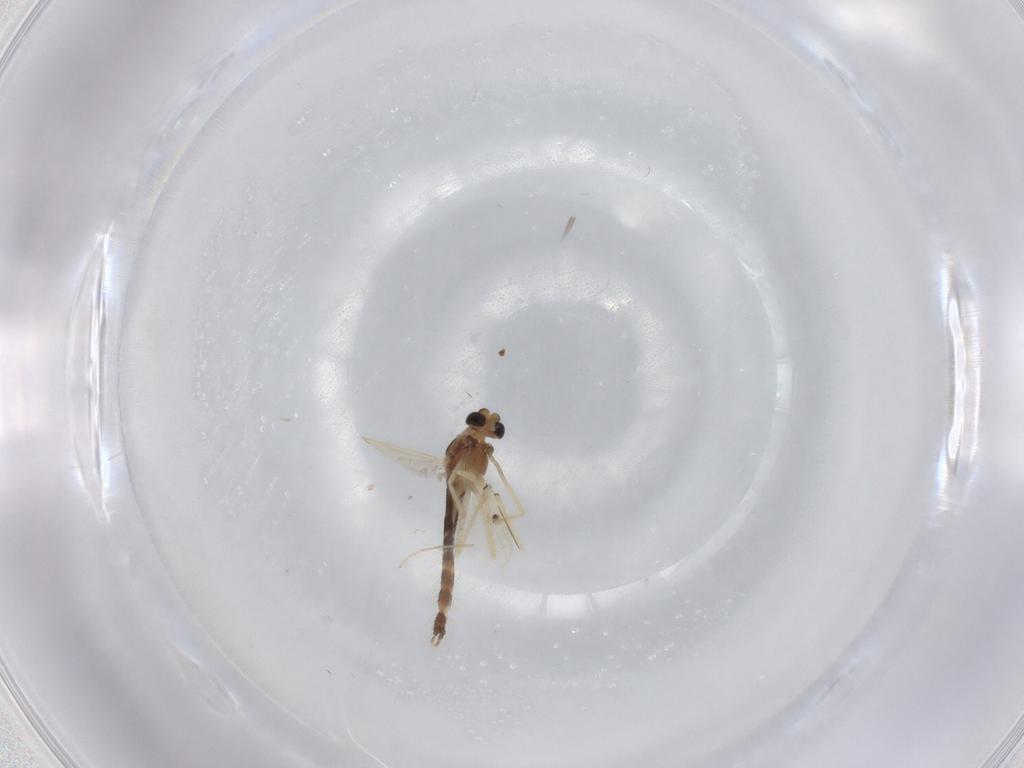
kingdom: Animalia
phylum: Arthropoda
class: Insecta
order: Diptera
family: Chironomidae
